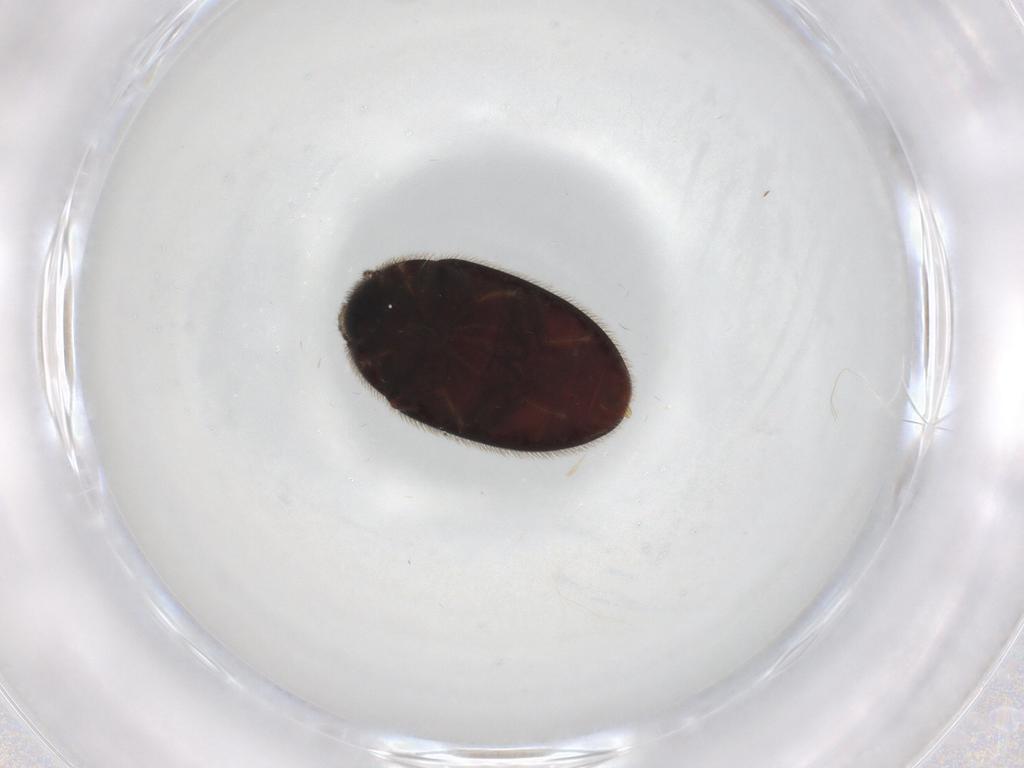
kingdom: Animalia
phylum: Arthropoda
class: Insecta
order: Coleoptera
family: Limnichidae
